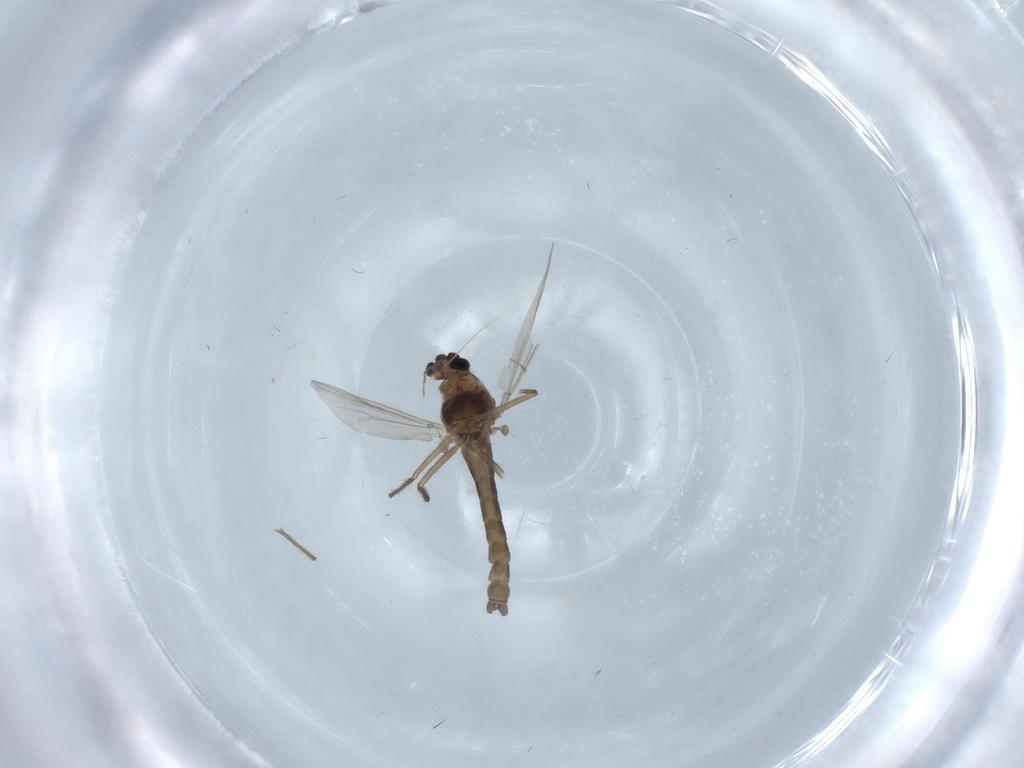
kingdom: Animalia
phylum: Arthropoda
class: Insecta
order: Diptera
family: Chironomidae
